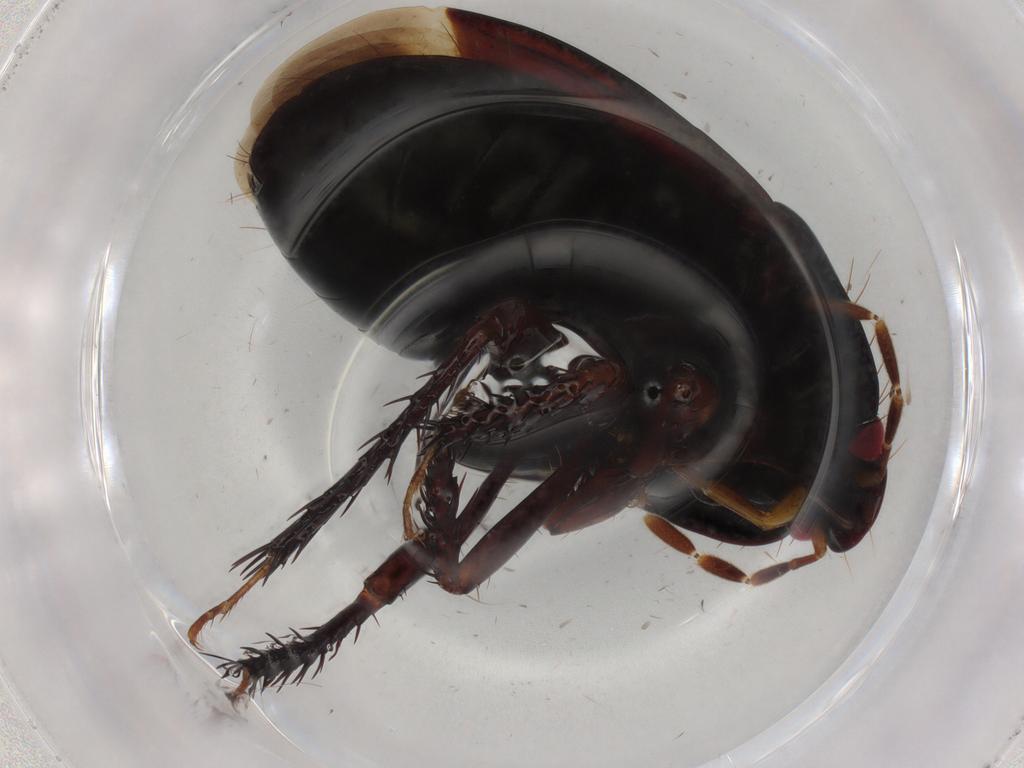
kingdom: Animalia
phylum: Arthropoda
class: Insecta
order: Hemiptera
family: Cydnidae
